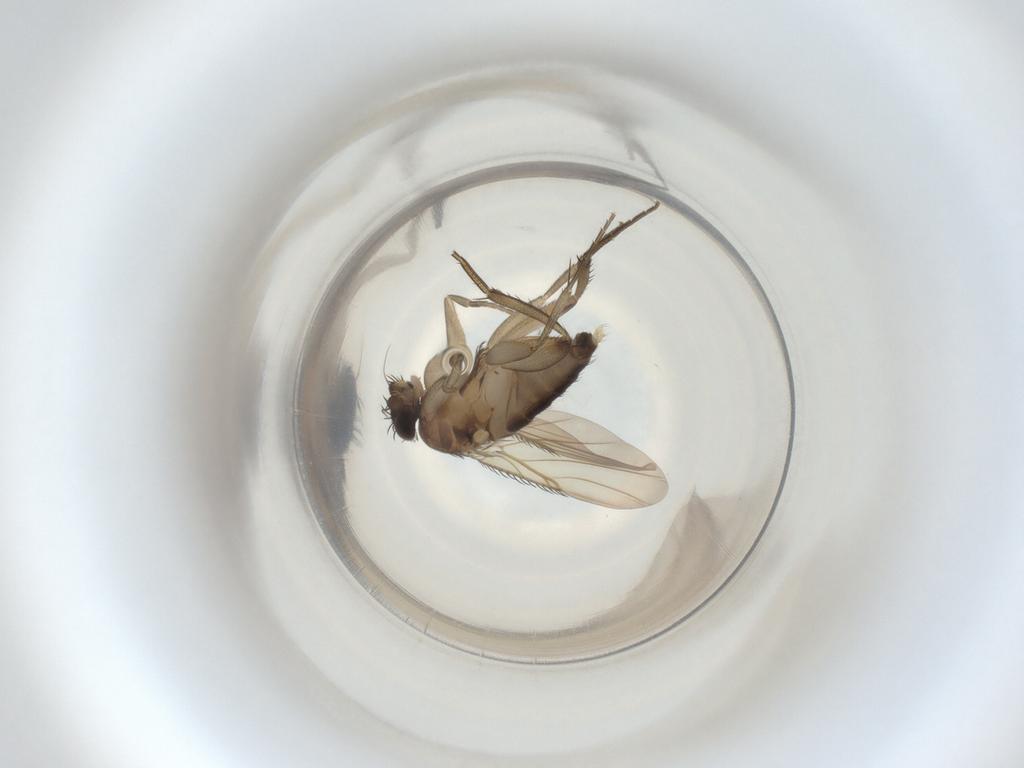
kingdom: Animalia
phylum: Arthropoda
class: Insecta
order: Diptera
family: Phoridae
